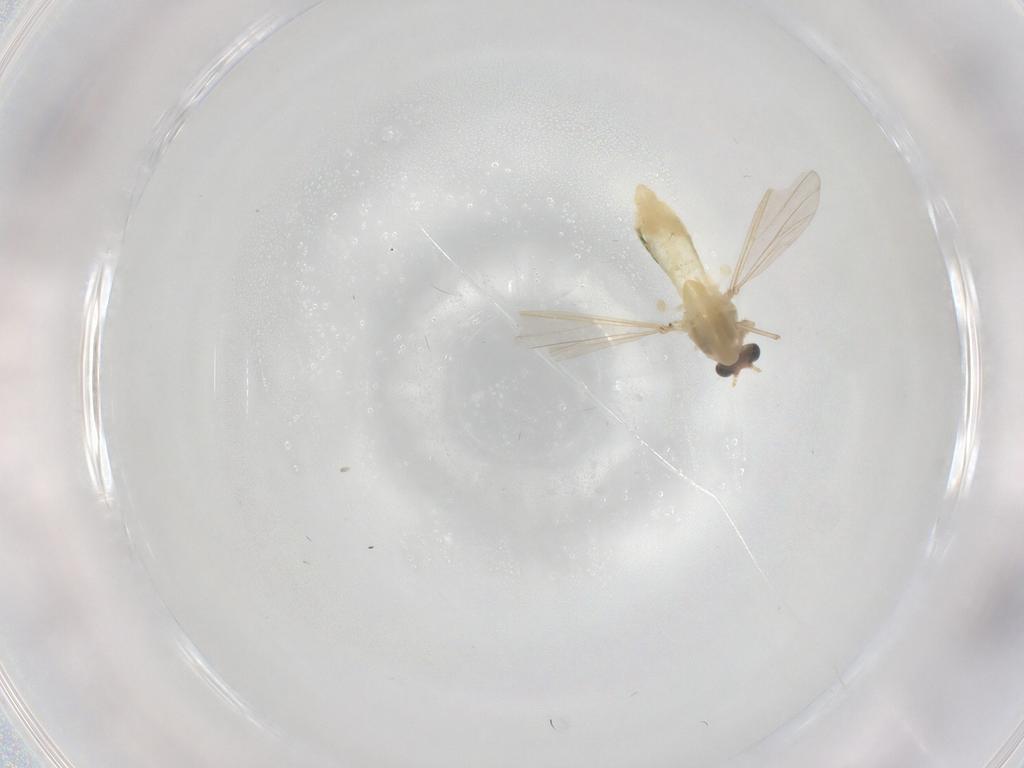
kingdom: Animalia
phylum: Arthropoda
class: Insecta
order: Diptera
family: Chironomidae
